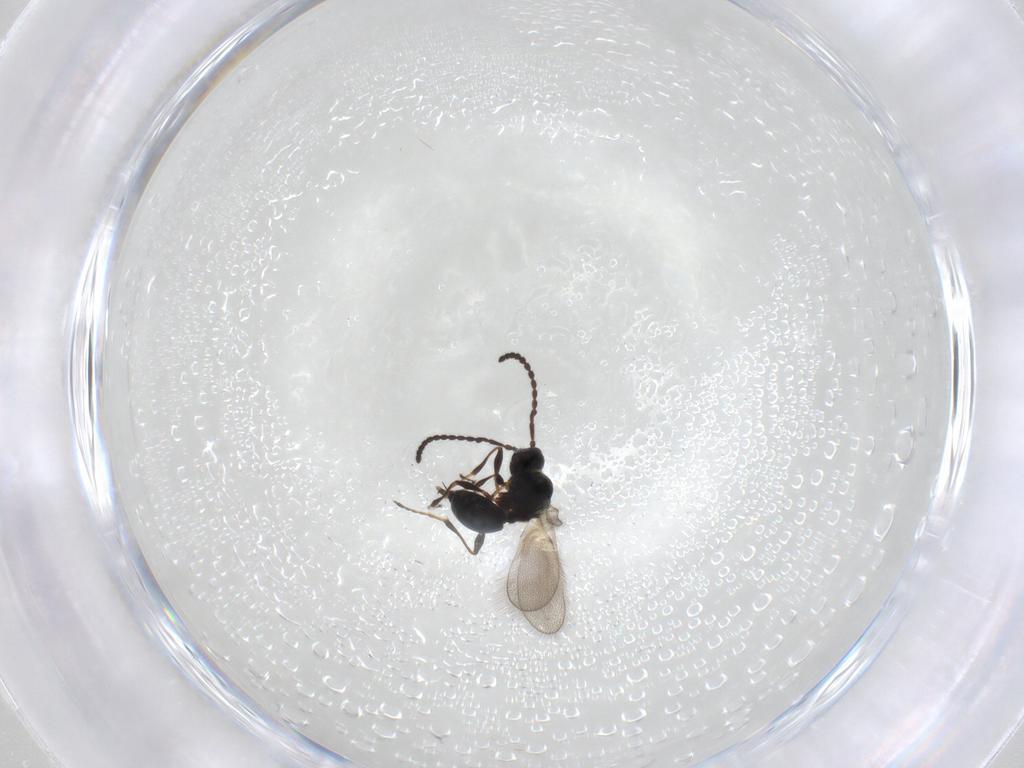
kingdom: Animalia
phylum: Arthropoda
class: Insecta
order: Hymenoptera
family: Diapriidae
